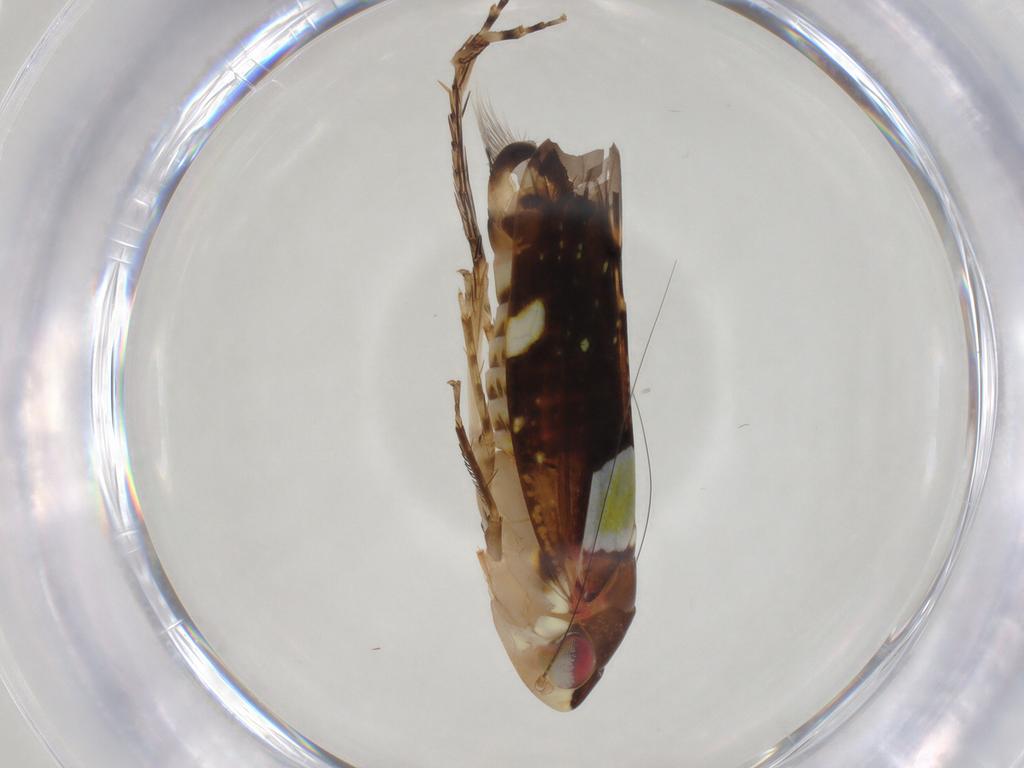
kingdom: Animalia
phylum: Arthropoda
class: Insecta
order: Hemiptera
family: Cicadellidae
